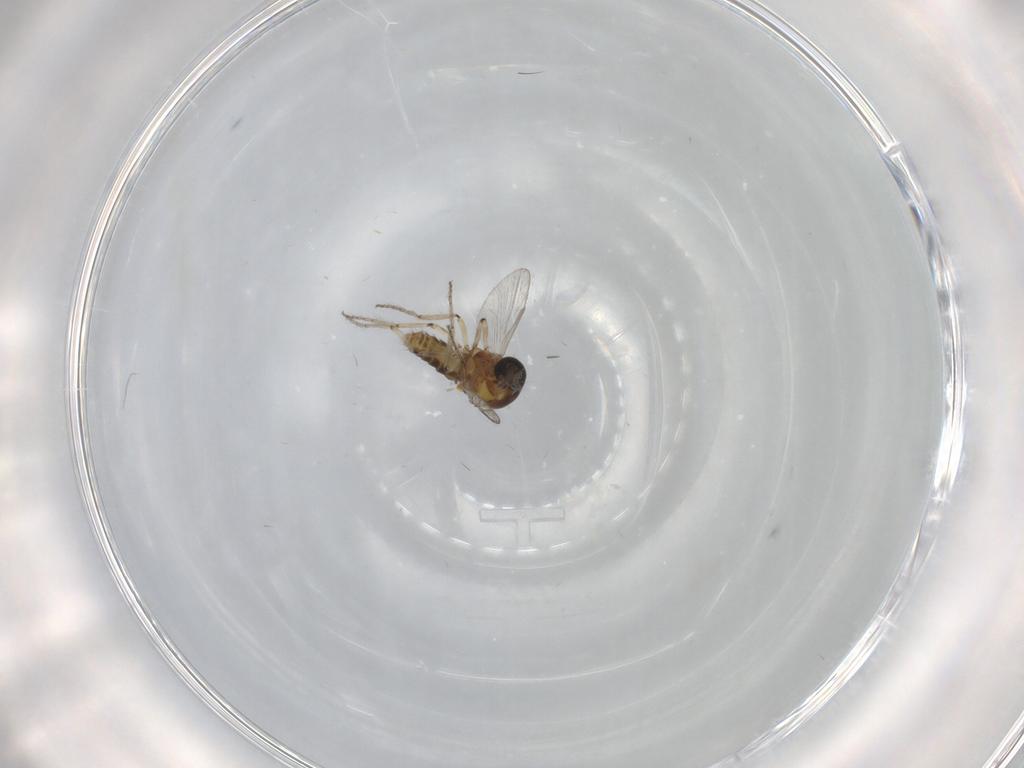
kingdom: Animalia
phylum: Arthropoda
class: Insecta
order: Diptera
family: Ceratopogonidae
